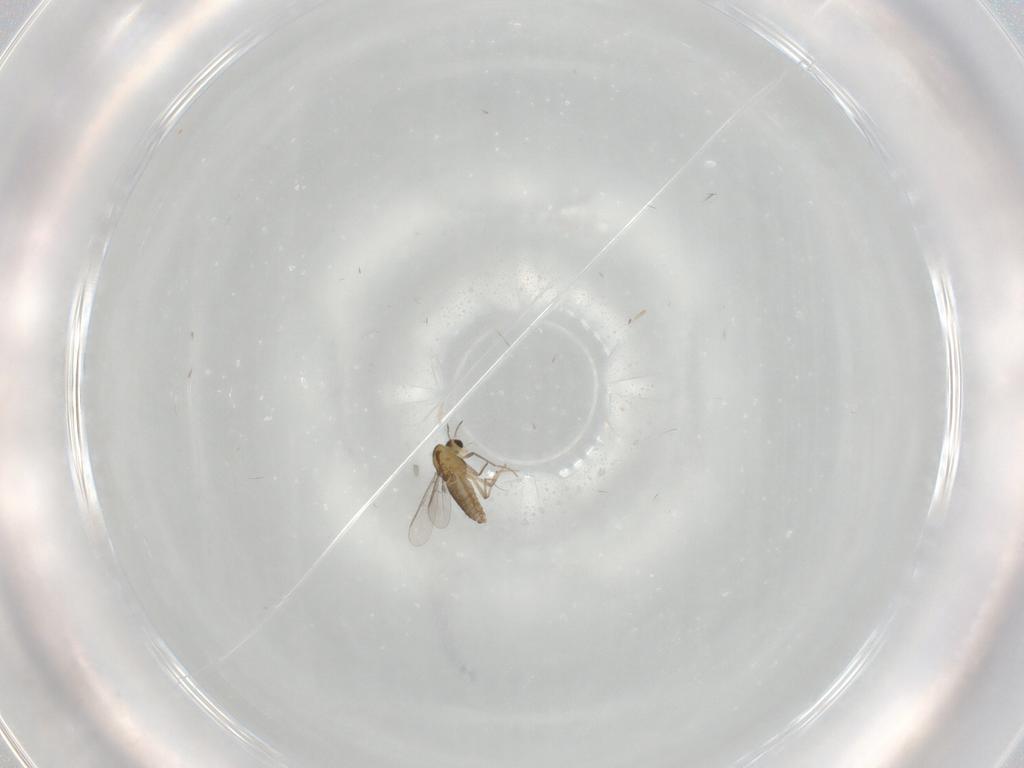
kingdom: Animalia
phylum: Arthropoda
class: Insecta
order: Diptera
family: Chironomidae
